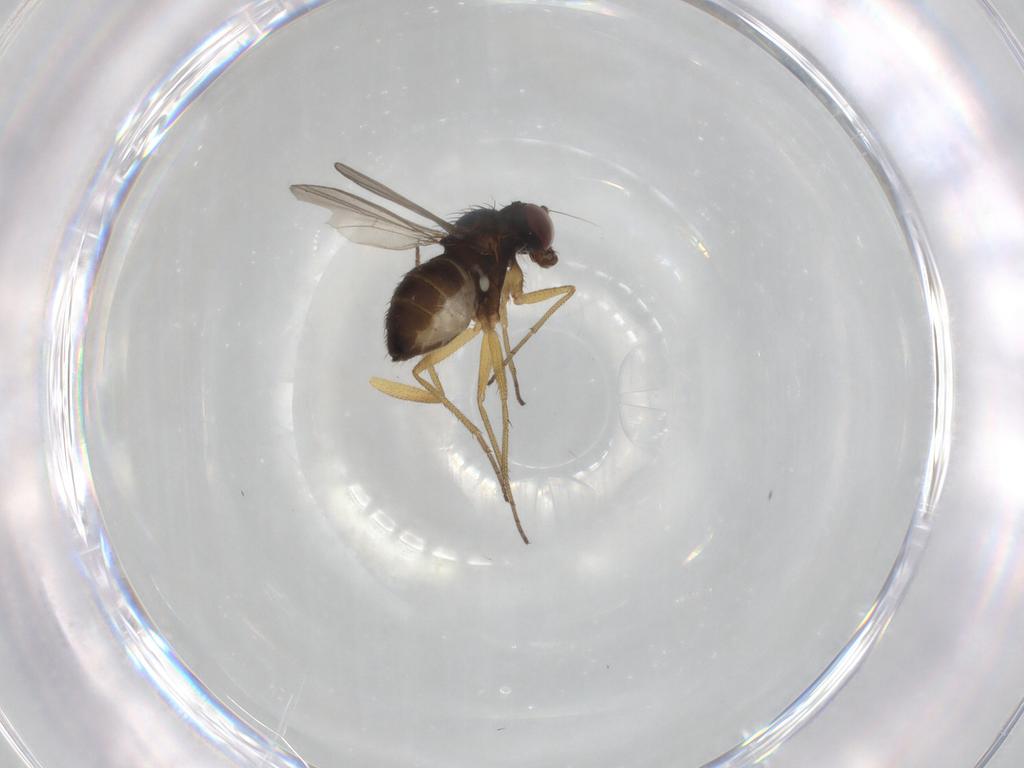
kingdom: Animalia
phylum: Arthropoda
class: Insecta
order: Diptera
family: Dolichopodidae
